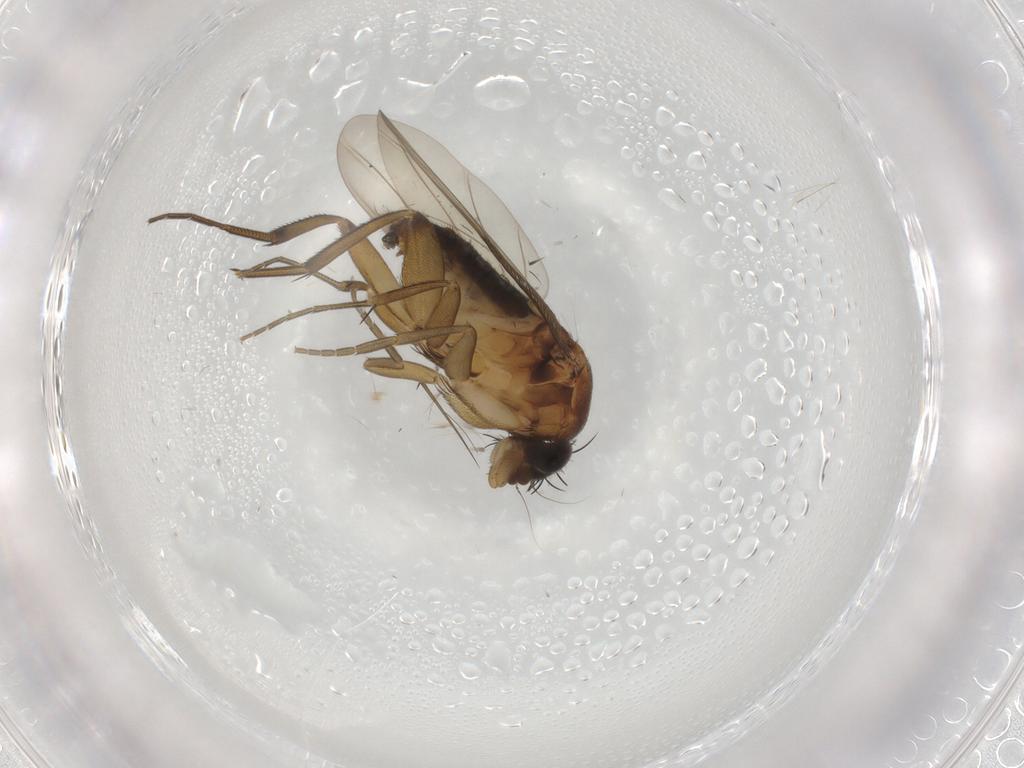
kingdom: Animalia
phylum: Arthropoda
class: Insecta
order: Diptera
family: Phoridae
